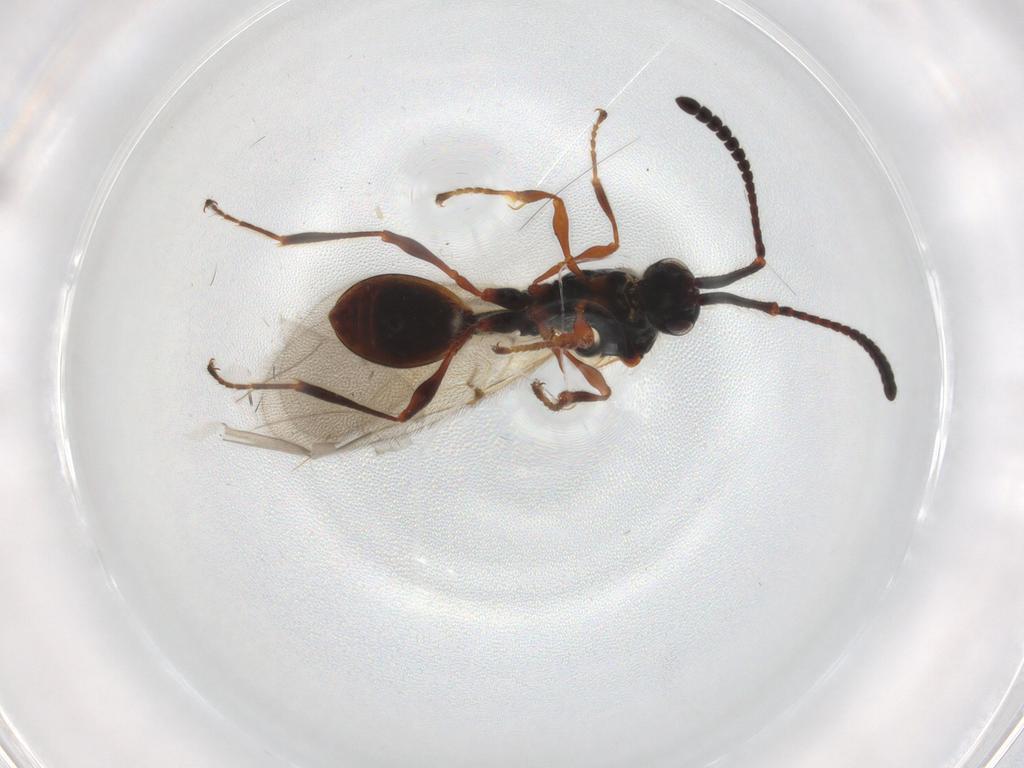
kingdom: Animalia
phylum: Arthropoda
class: Insecta
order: Hymenoptera
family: Diapriidae
